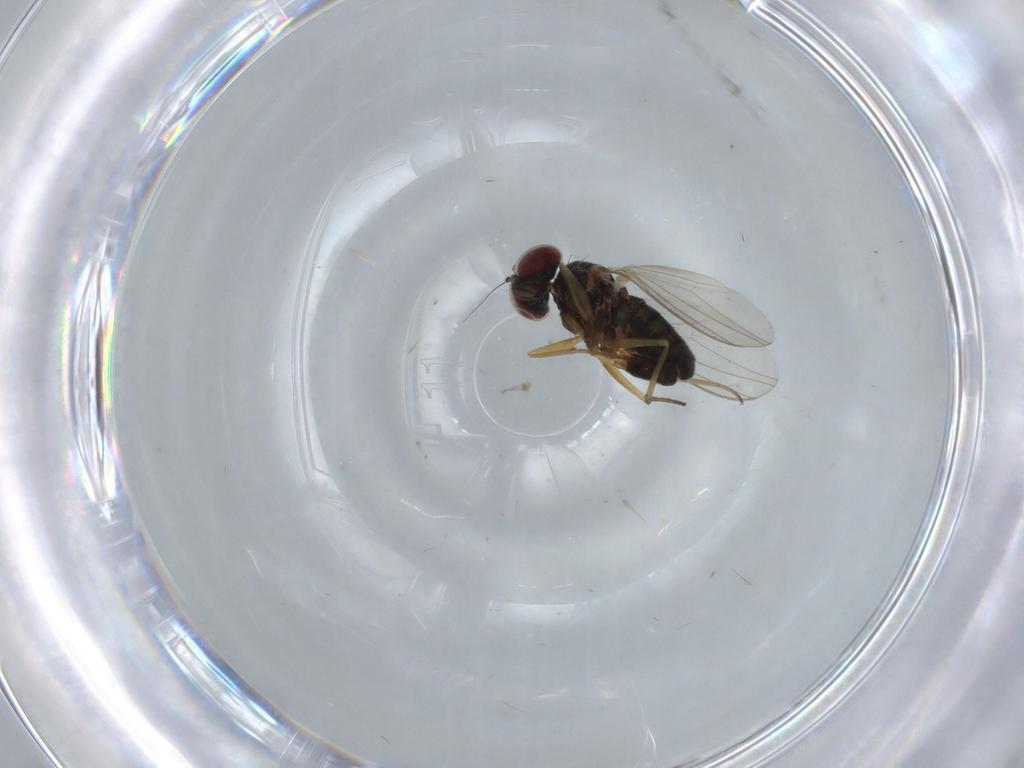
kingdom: Animalia
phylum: Arthropoda
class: Insecta
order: Diptera
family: Dolichopodidae
